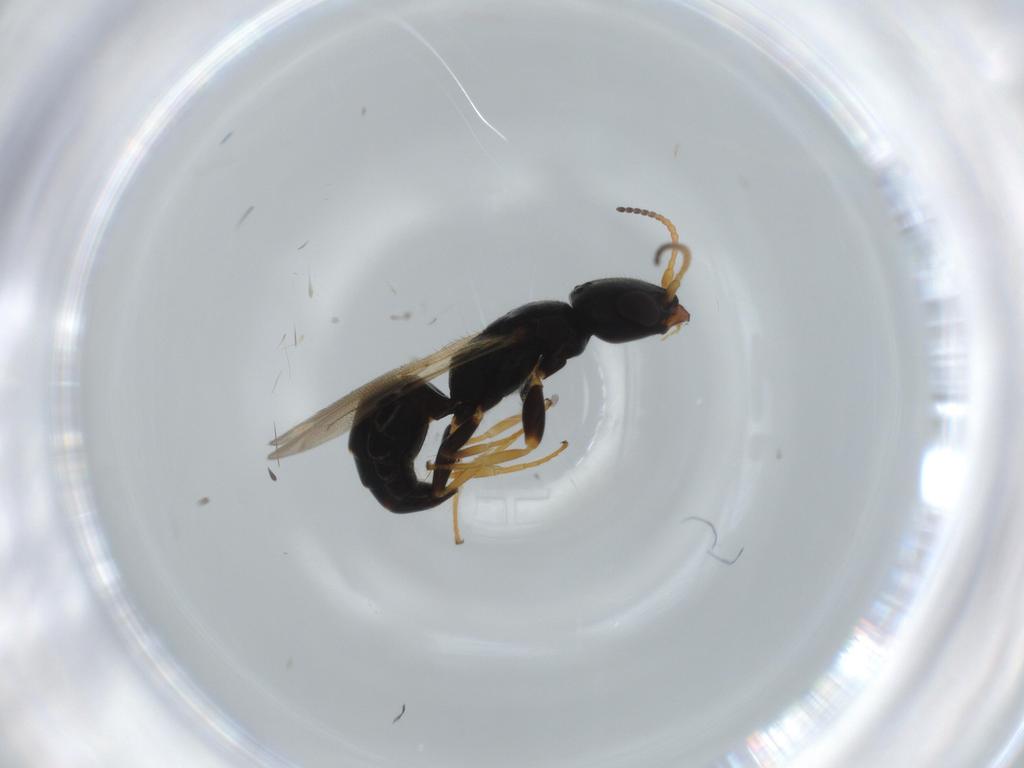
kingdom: Animalia
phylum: Arthropoda
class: Insecta
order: Hymenoptera
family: Bethylidae
